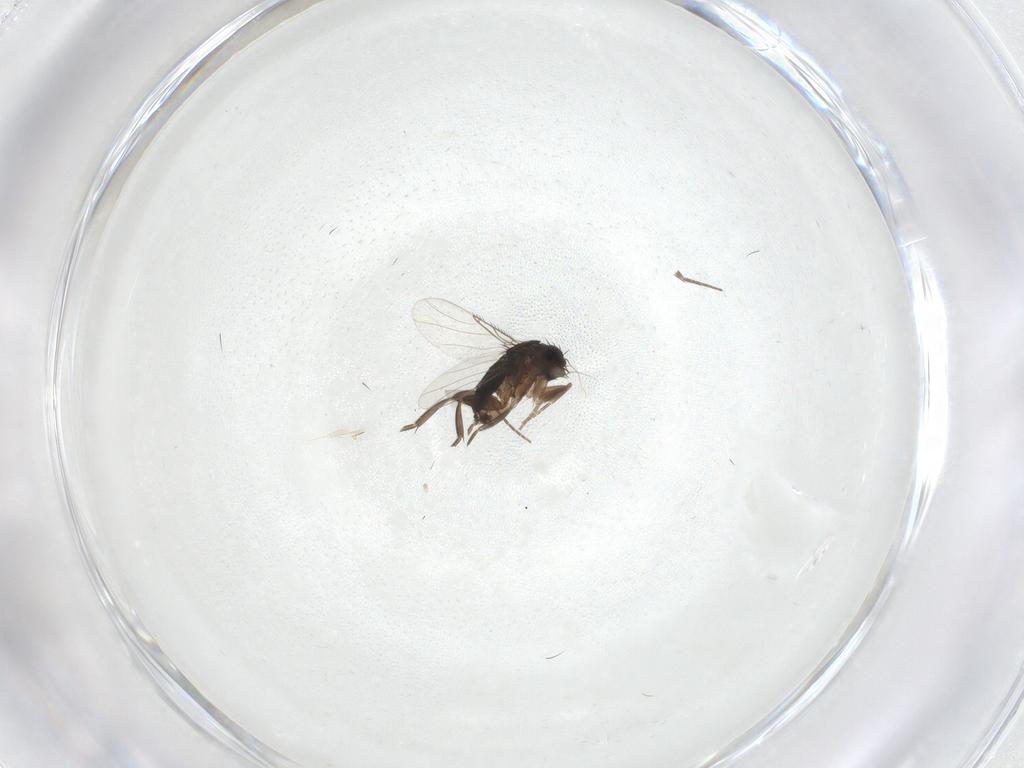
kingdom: Animalia
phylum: Arthropoda
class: Insecta
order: Diptera
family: Phoridae
